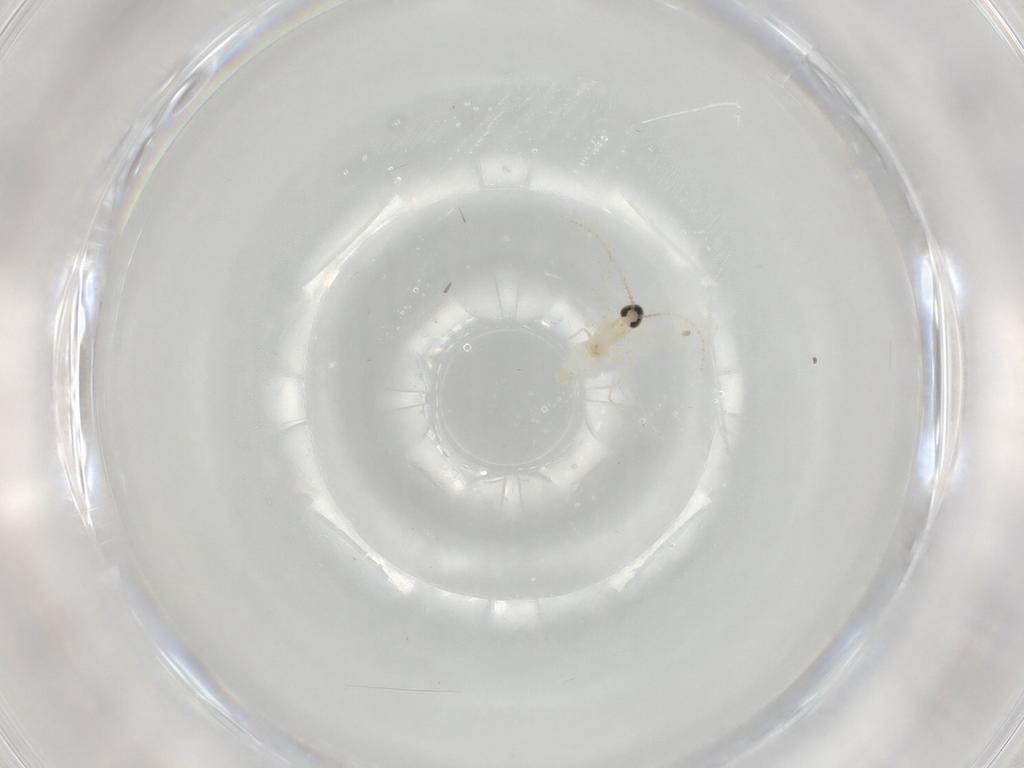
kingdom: Animalia
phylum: Arthropoda
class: Insecta
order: Diptera
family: Cecidomyiidae
